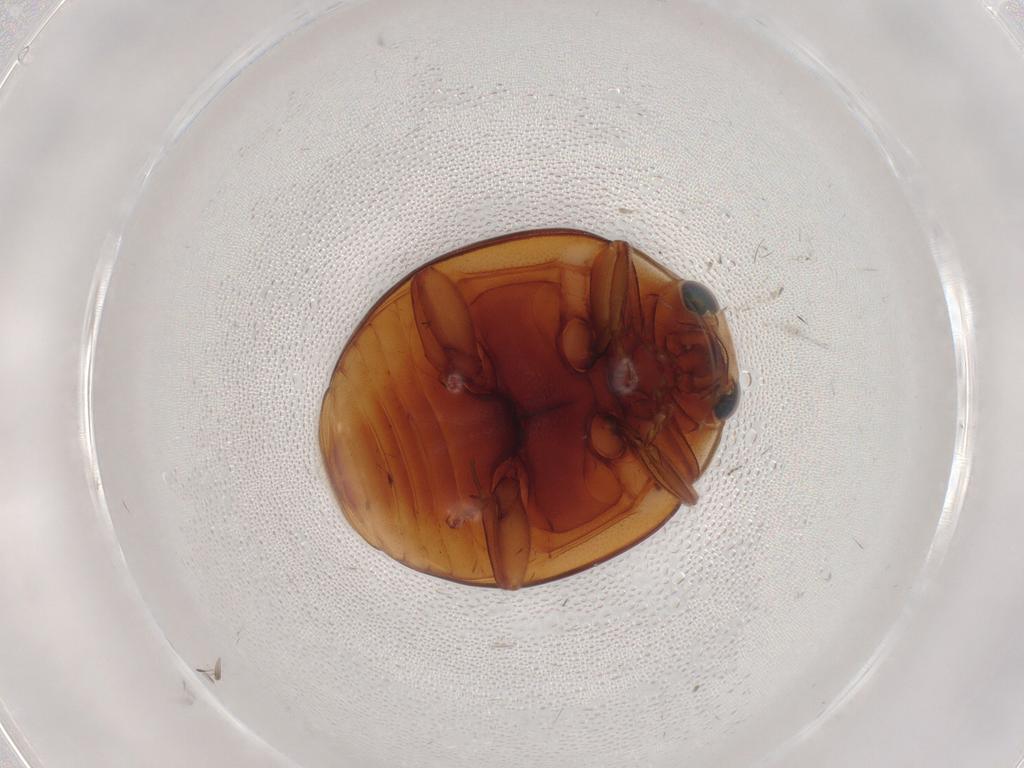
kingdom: Animalia
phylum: Arthropoda
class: Insecta
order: Coleoptera
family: Coccinellidae
